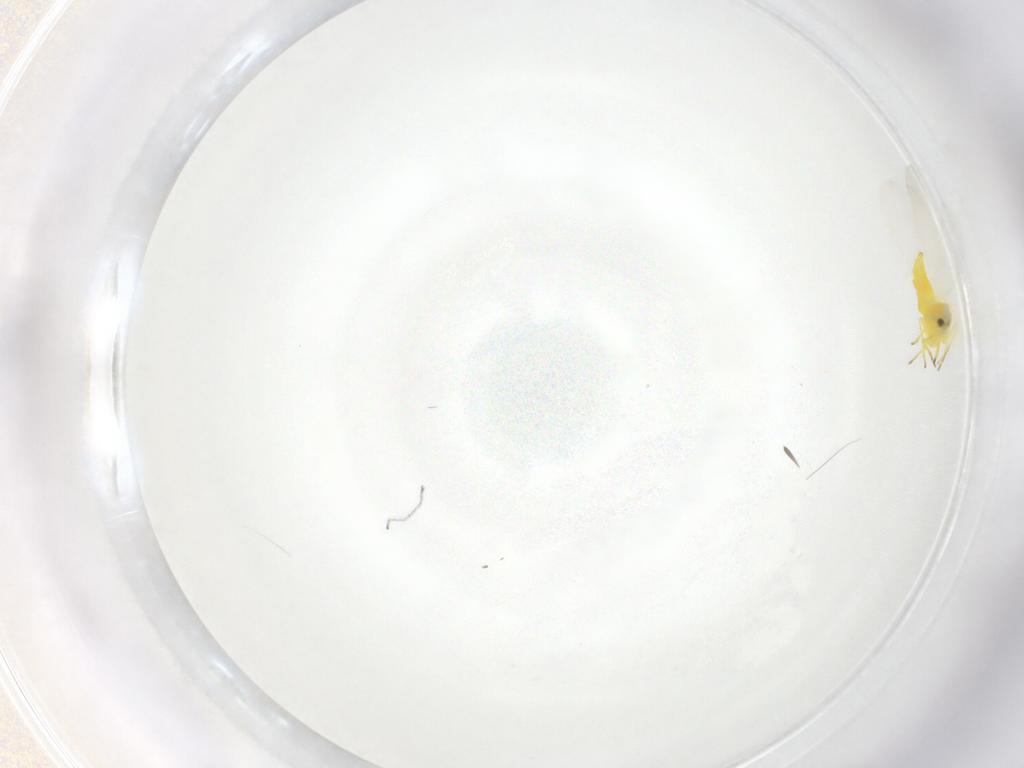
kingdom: Animalia
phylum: Arthropoda
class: Insecta
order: Hemiptera
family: Aleyrodidae
